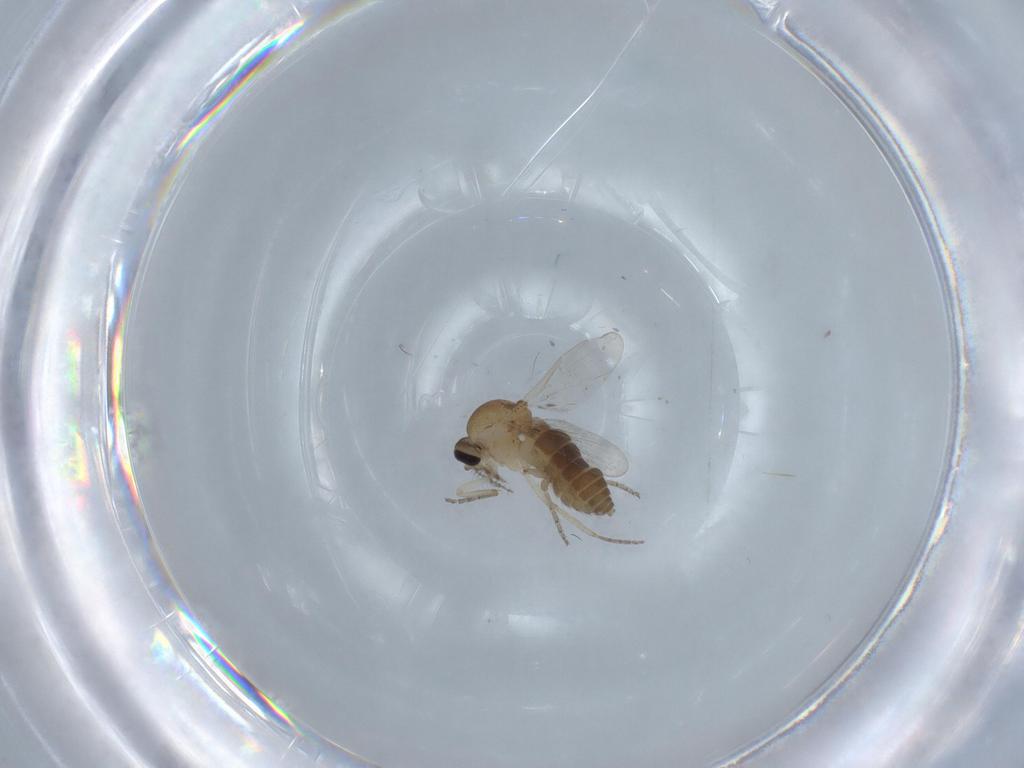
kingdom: Animalia
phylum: Arthropoda
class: Insecta
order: Diptera
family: Ceratopogonidae
